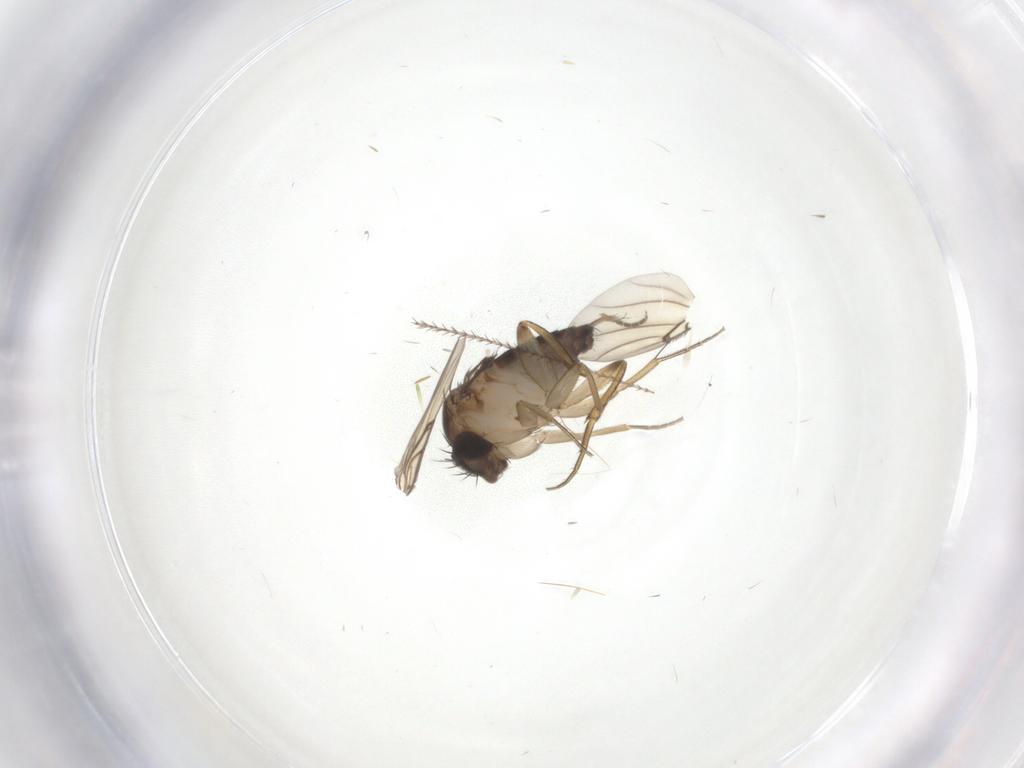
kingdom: Animalia
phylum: Arthropoda
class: Insecta
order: Diptera
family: Phoridae
